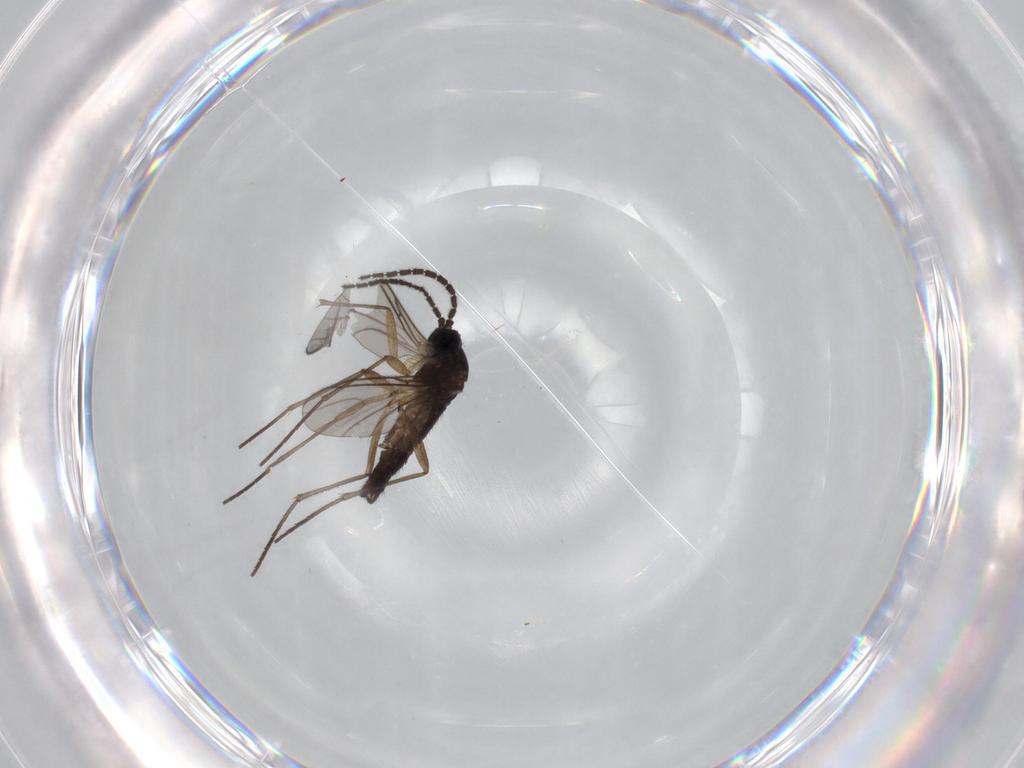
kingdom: Animalia
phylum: Arthropoda
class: Insecta
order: Diptera
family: Sciaridae
